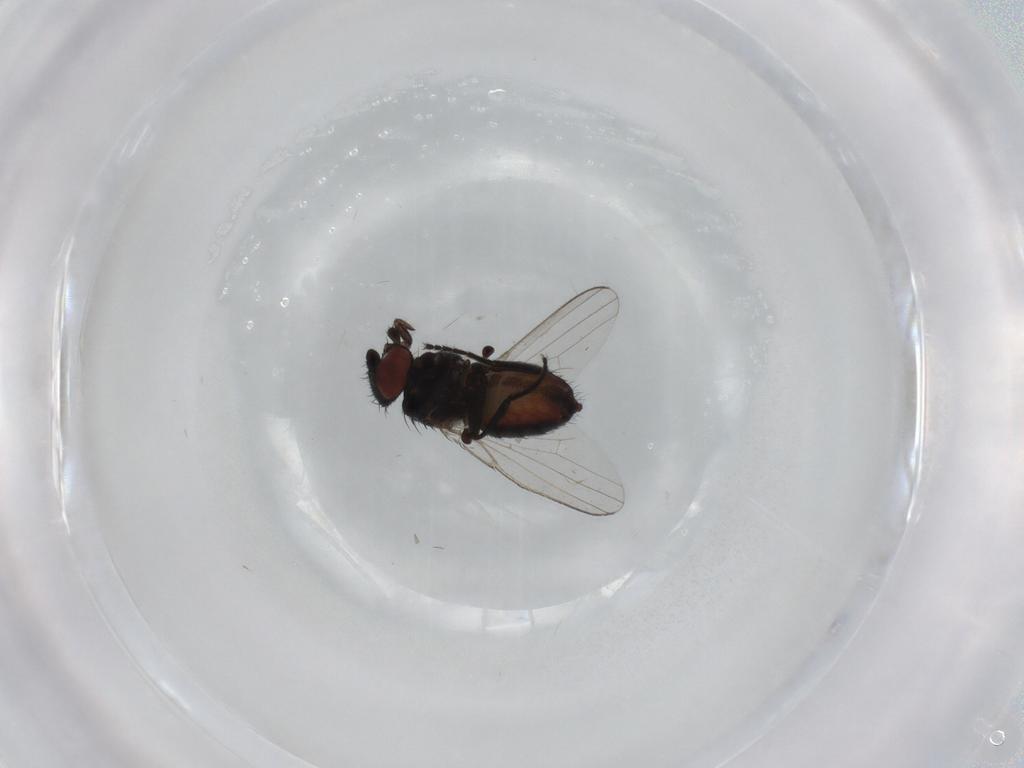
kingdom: Animalia
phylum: Arthropoda
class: Insecta
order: Diptera
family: Milichiidae
